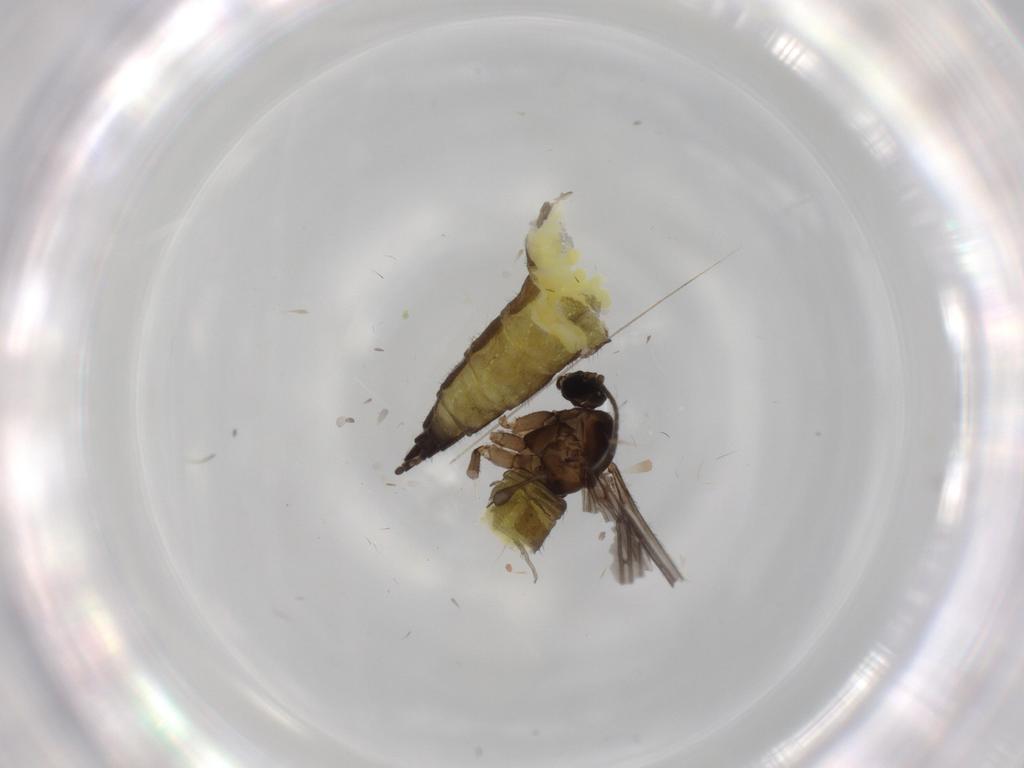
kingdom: Animalia
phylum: Arthropoda
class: Insecta
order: Diptera
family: Sciaridae
